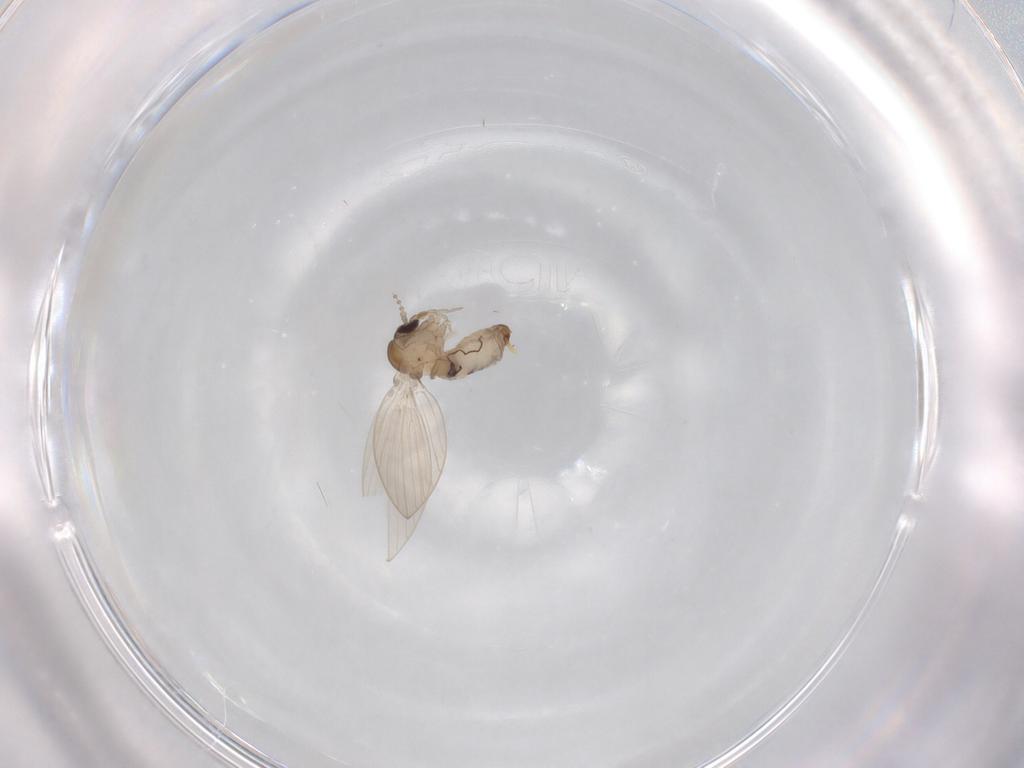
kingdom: Animalia
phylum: Arthropoda
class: Insecta
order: Diptera
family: Psychodidae
